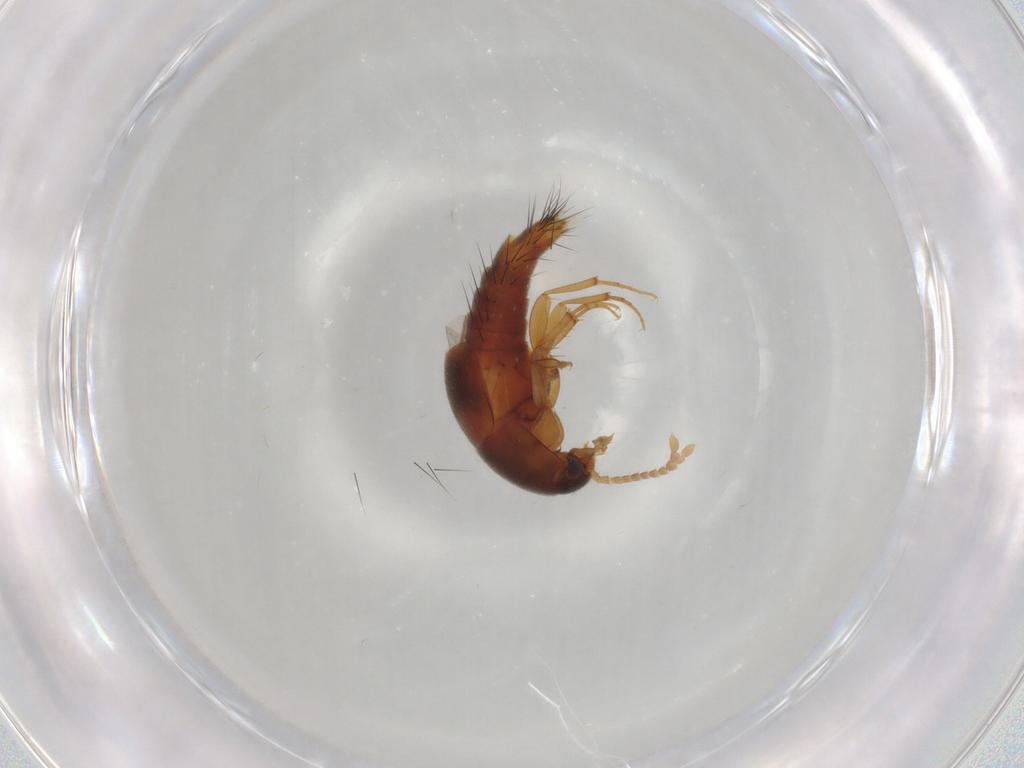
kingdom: Animalia
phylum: Arthropoda
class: Insecta
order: Coleoptera
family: Staphylinidae
